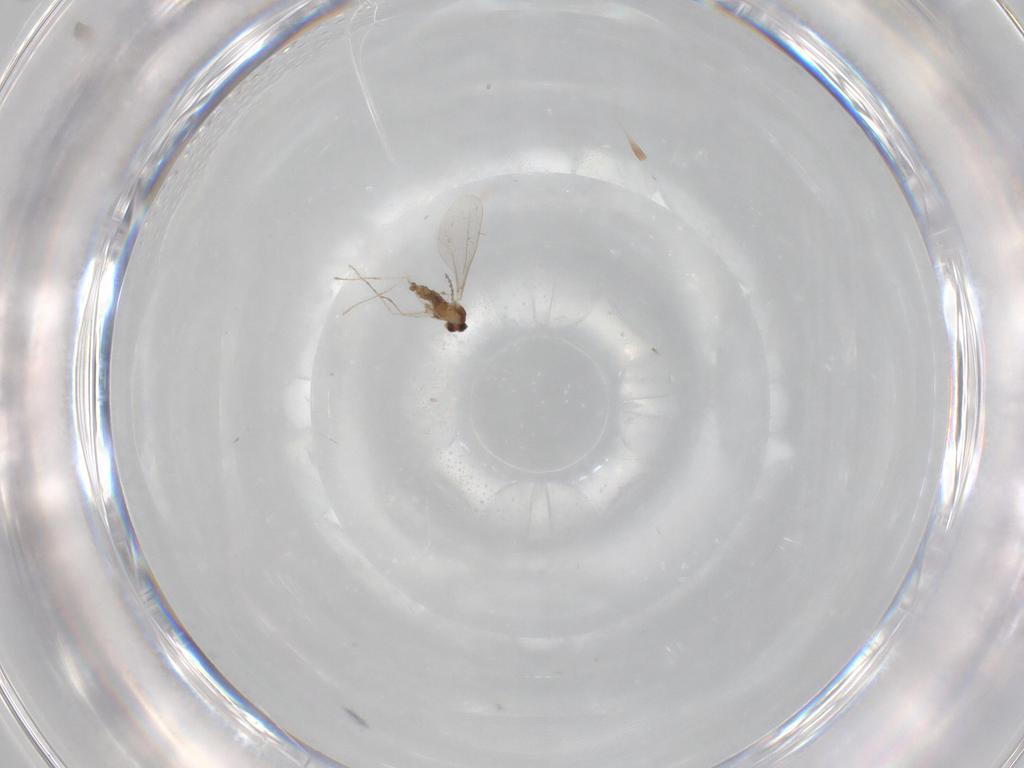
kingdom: Animalia
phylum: Arthropoda
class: Insecta
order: Diptera
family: Cecidomyiidae
